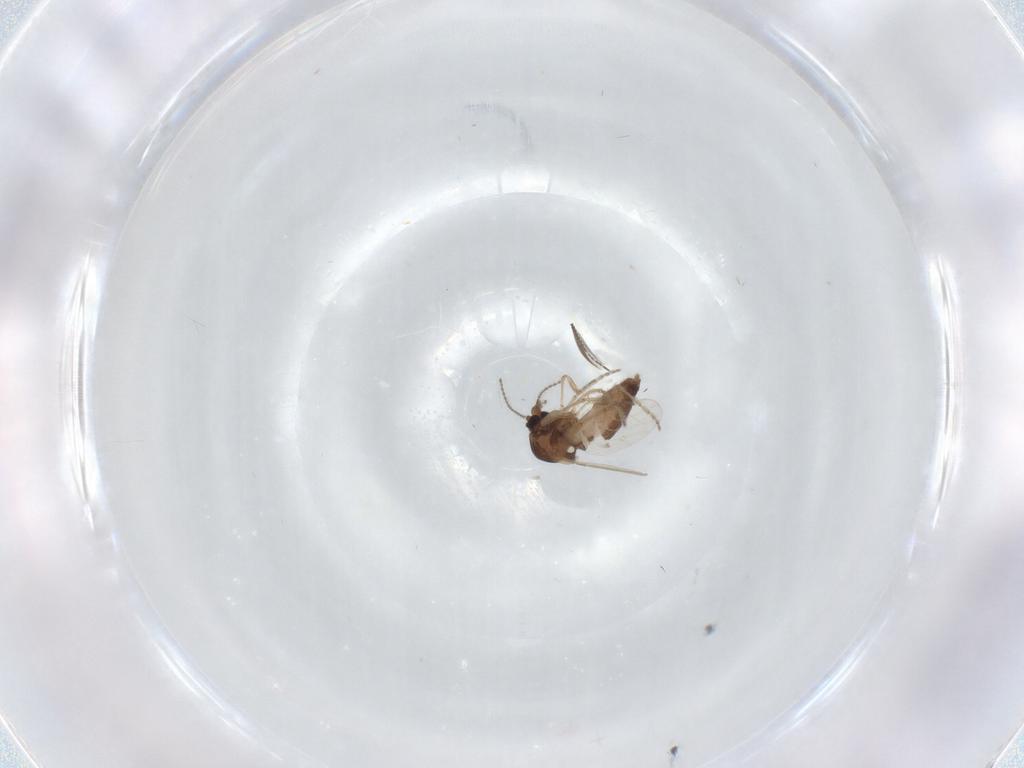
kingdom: Animalia
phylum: Arthropoda
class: Insecta
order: Diptera
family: Ceratopogonidae
